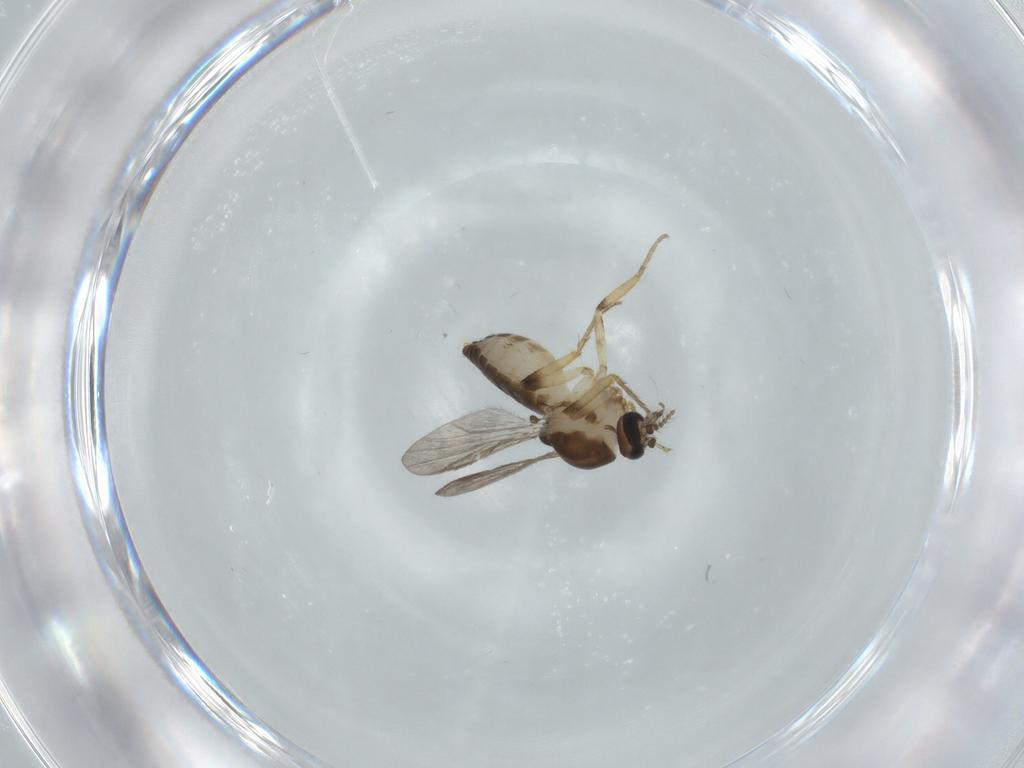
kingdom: Animalia
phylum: Arthropoda
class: Insecta
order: Diptera
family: Ceratopogonidae
